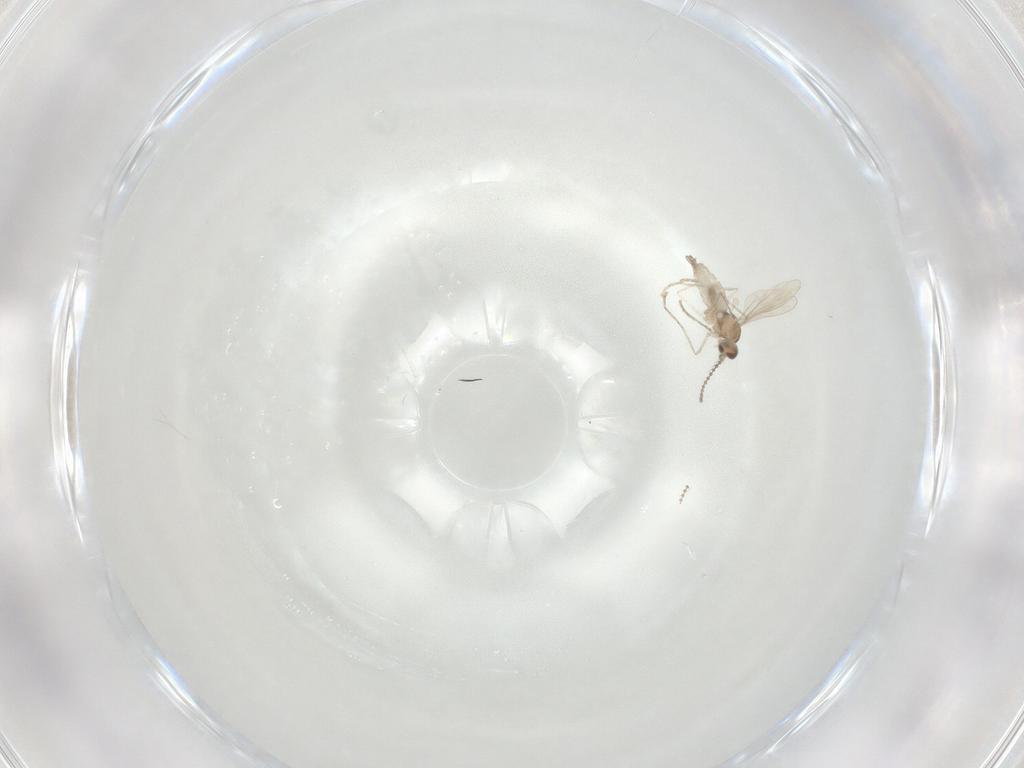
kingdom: Animalia
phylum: Arthropoda
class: Insecta
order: Diptera
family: Cecidomyiidae
